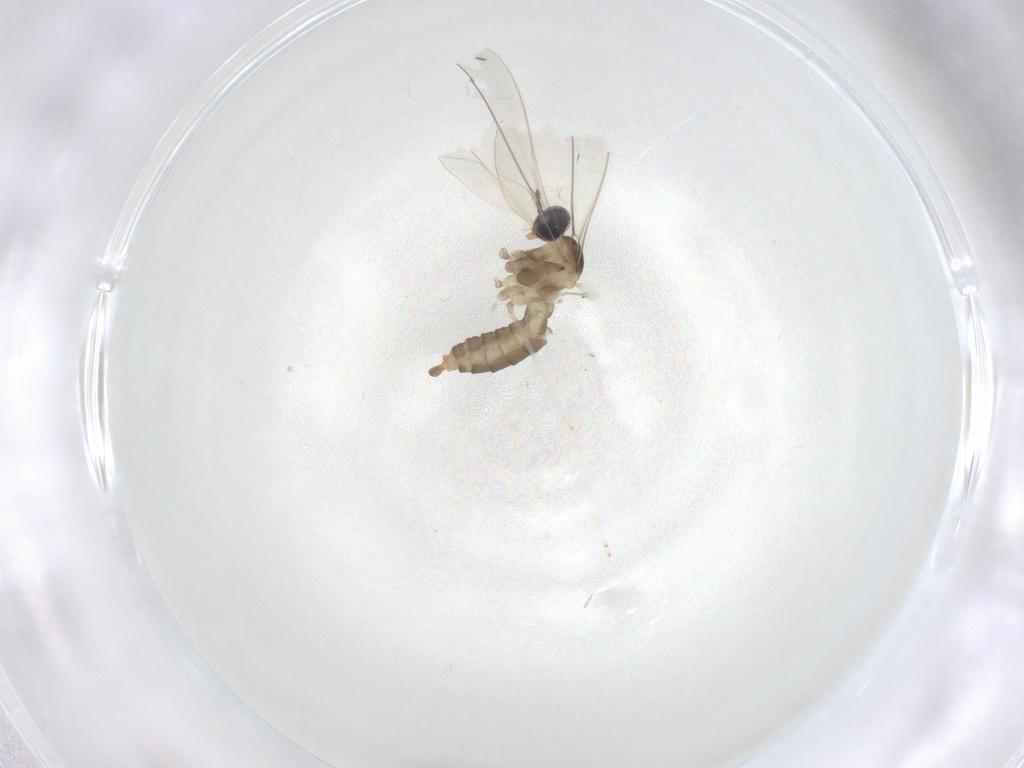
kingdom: Animalia
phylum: Arthropoda
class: Insecta
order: Diptera
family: Cecidomyiidae
